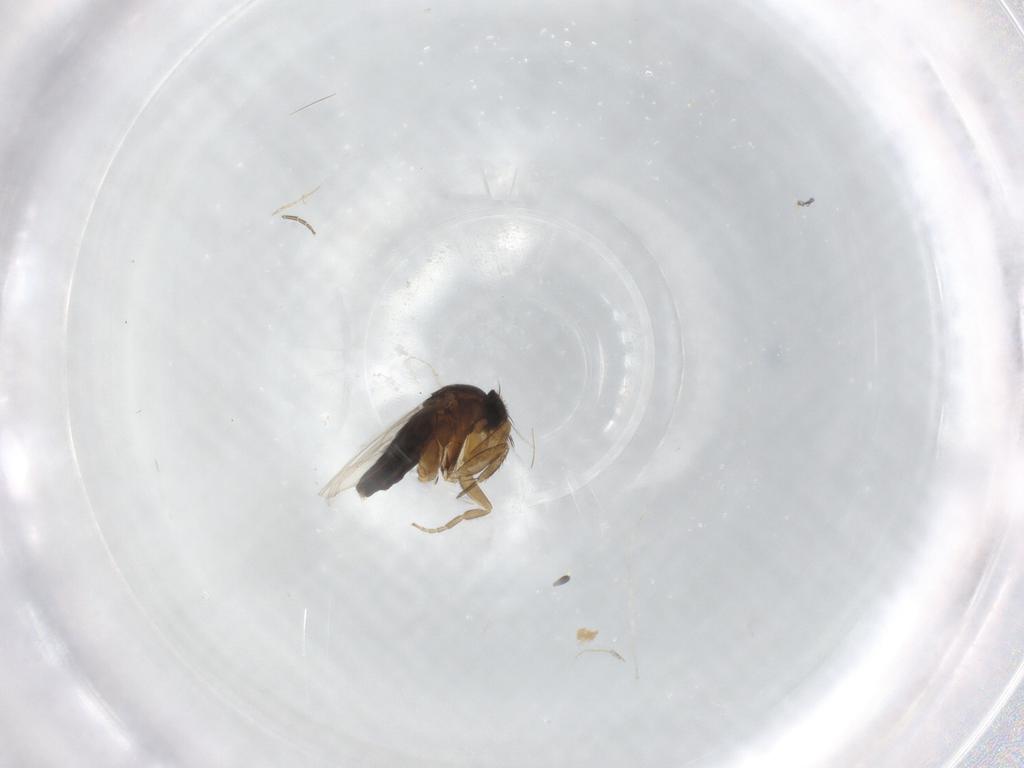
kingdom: Animalia
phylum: Arthropoda
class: Insecta
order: Diptera
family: Phoridae
